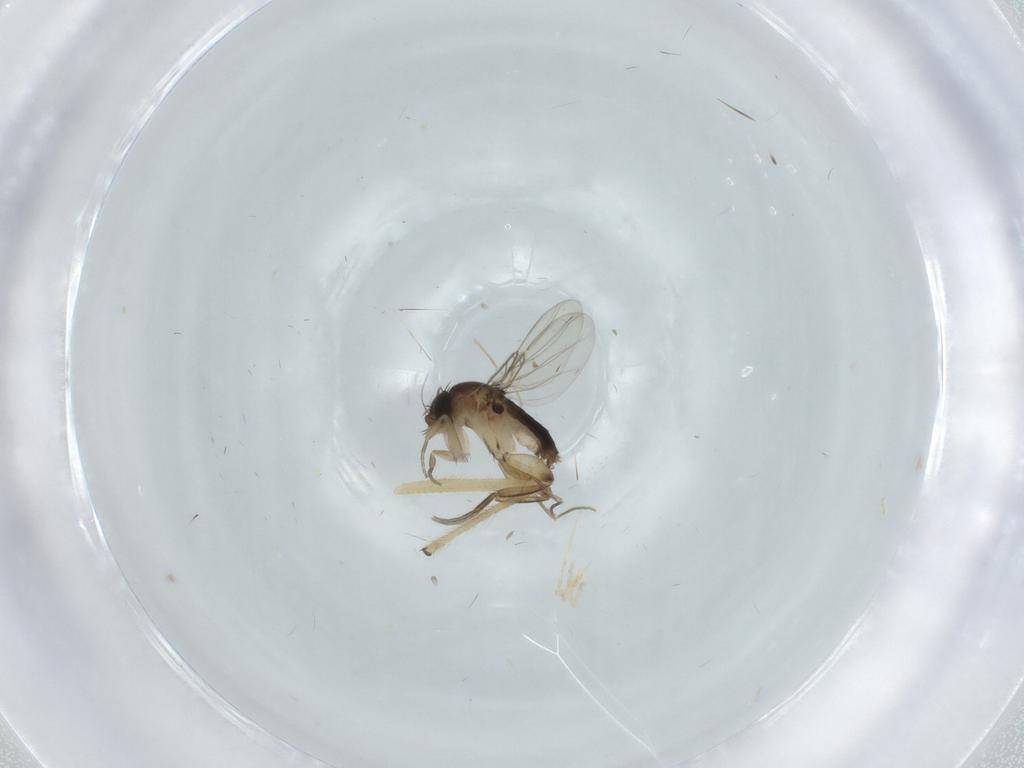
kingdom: Animalia
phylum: Arthropoda
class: Insecta
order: Diptera
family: Phoridae
